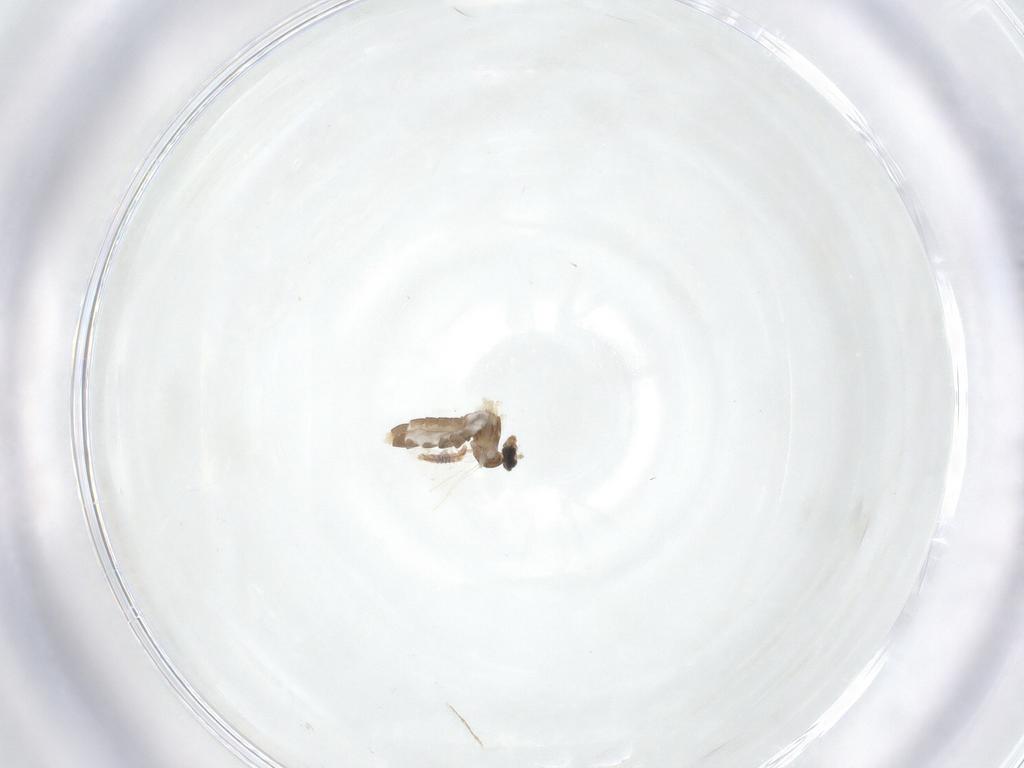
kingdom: Animalia
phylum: Arthropoda
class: Insecta
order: Diptera
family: Cecidomyiidae
